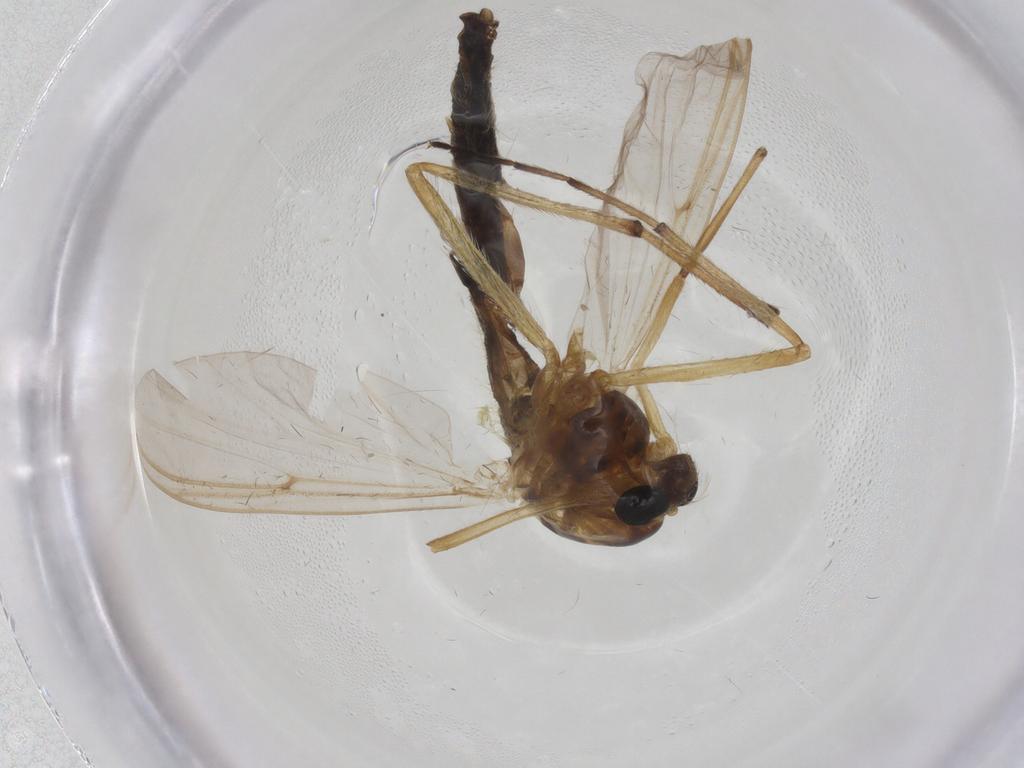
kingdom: Animalia
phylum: Arthropoda
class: Insecta
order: Diptera
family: Chironomidae
